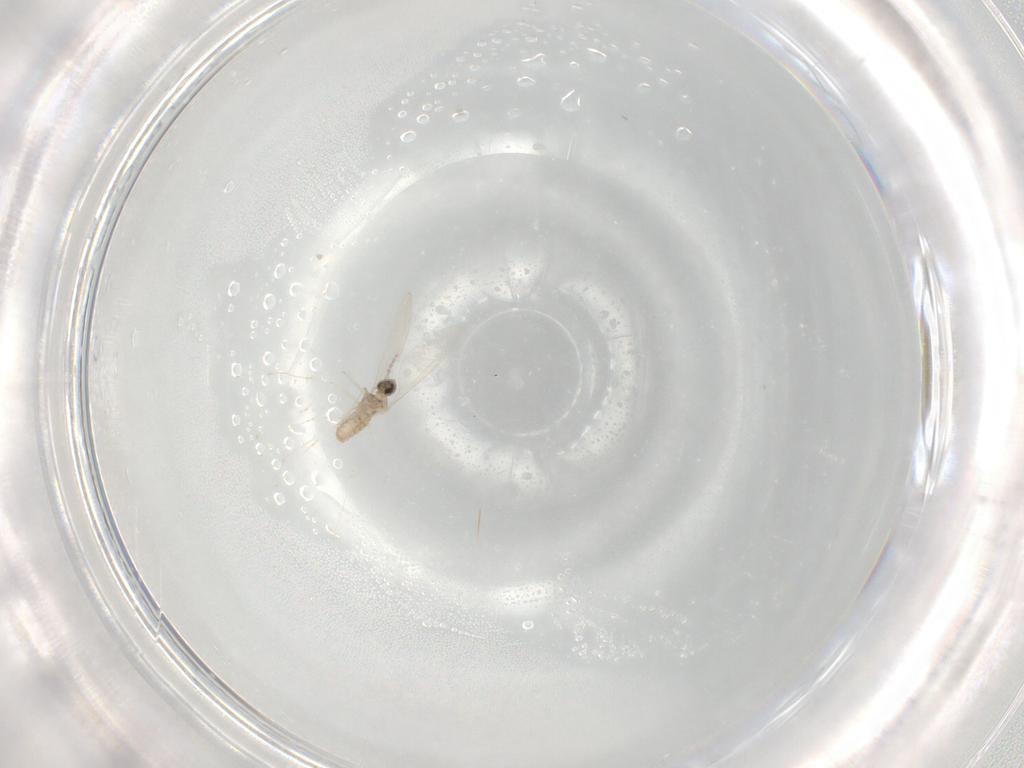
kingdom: Animalia
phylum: Arthropoda
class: Insecta
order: Diptera
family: Cecidomyiidae
